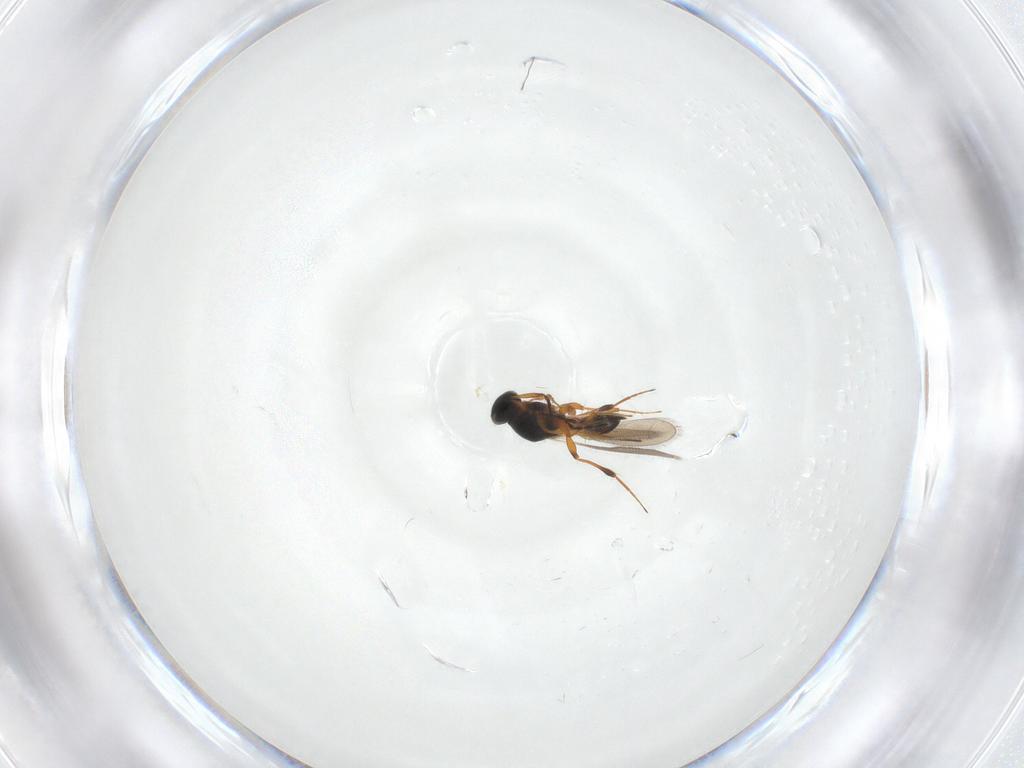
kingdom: Animalia
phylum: Arthropoda
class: Insecta
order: Hymenoptera
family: Platygastridae
